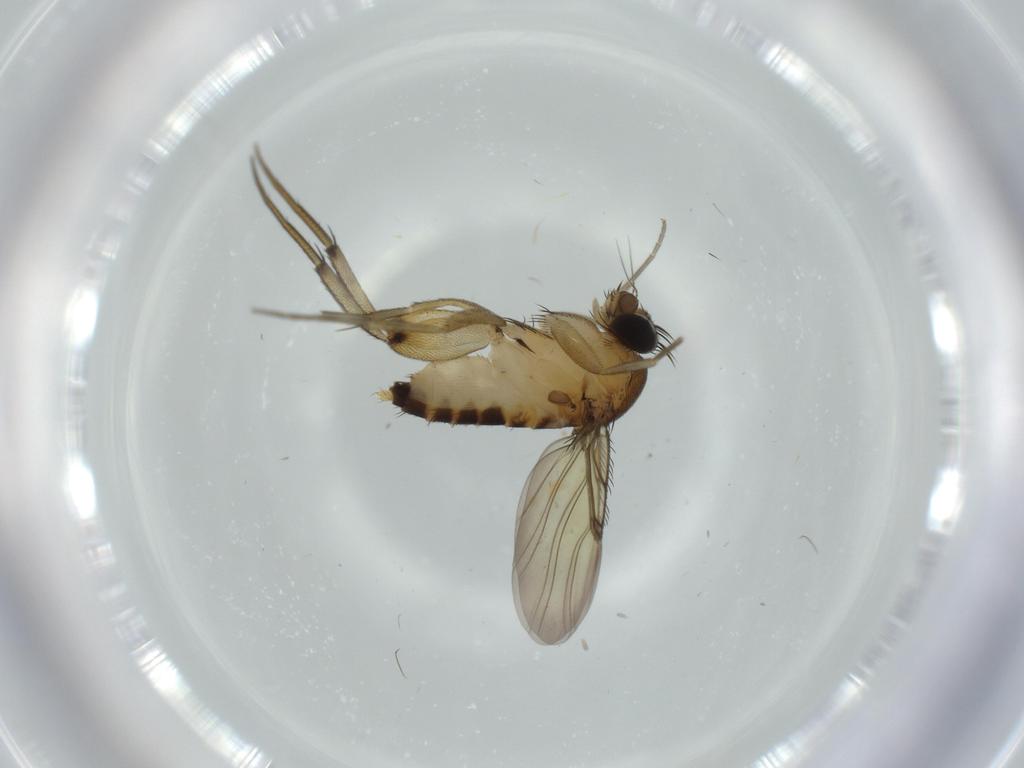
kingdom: Animalia
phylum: Arthropoda
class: Insecta
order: Diptera
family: Phoridae
